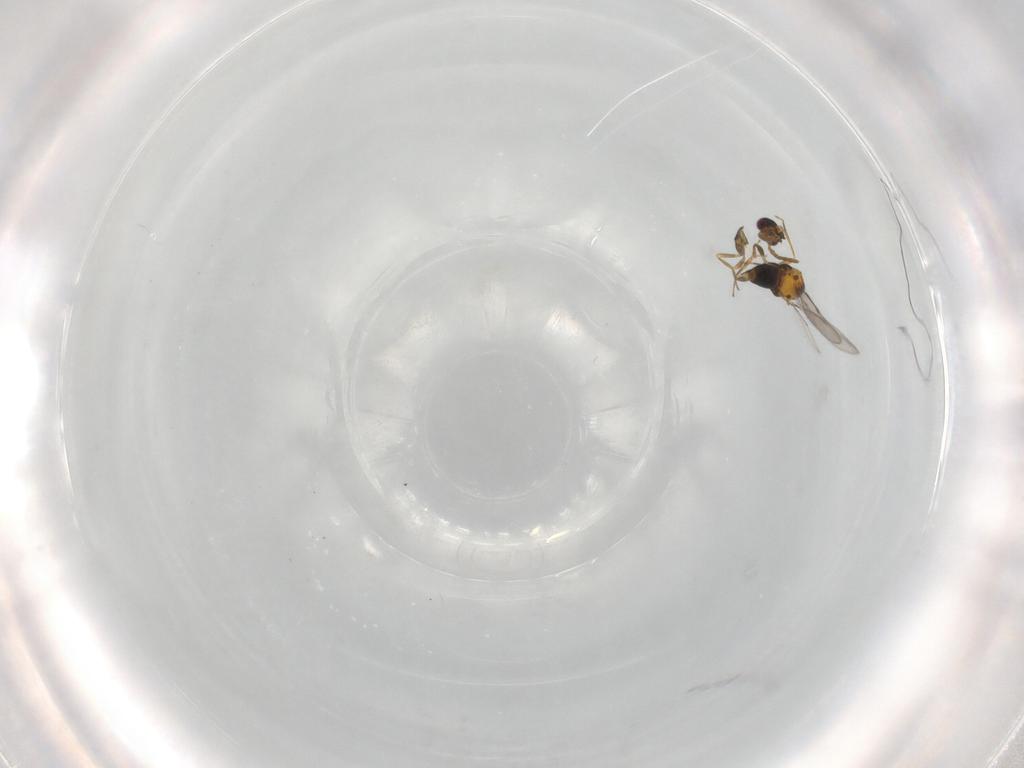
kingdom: Animalia
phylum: Arthropoda
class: Insecta
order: Hymenoptera
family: Aphelinidae
